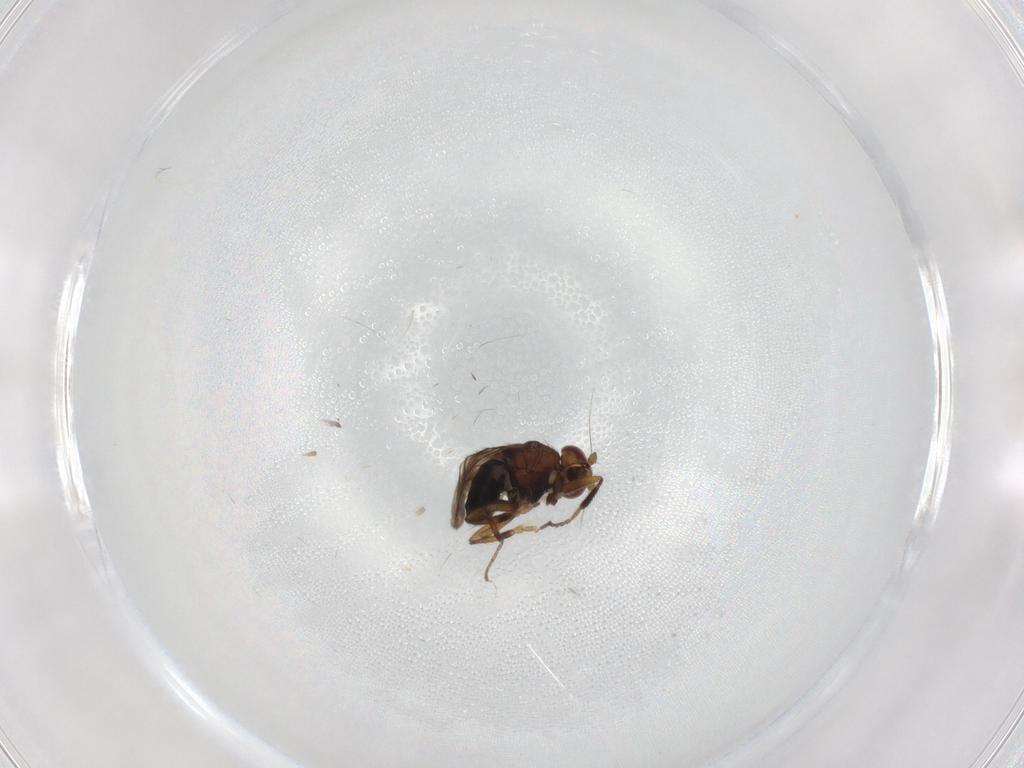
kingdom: Animalia
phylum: Arthropoda
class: Insecta
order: Diptera
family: Sphaeroceridae
